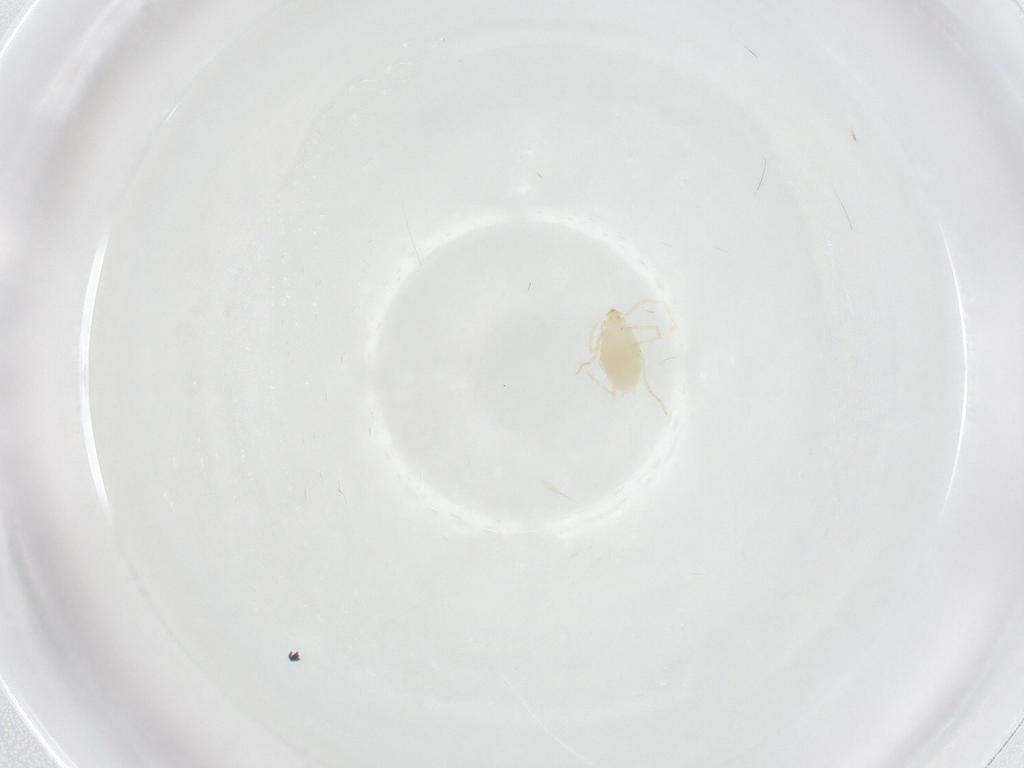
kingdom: Animalia
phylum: Arthropoda
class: Arachnida
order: Trombidiformes
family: Erythraeidae
